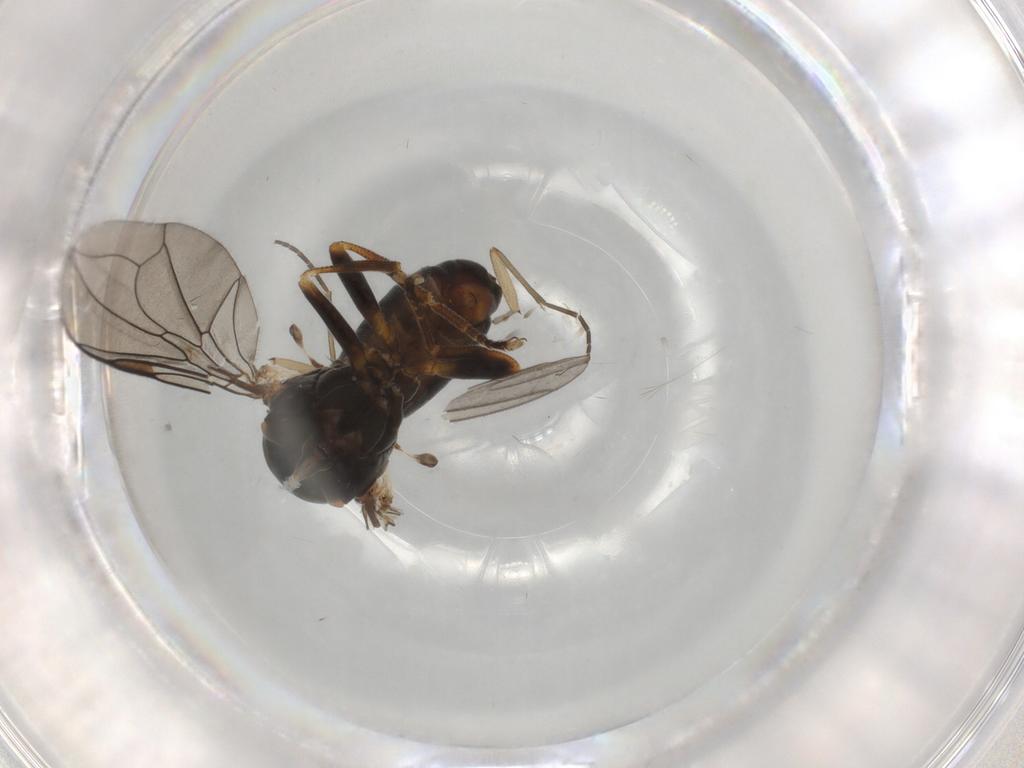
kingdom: Animalia
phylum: Arthropoda
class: Insecta
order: Diptera
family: Pipunculidae
